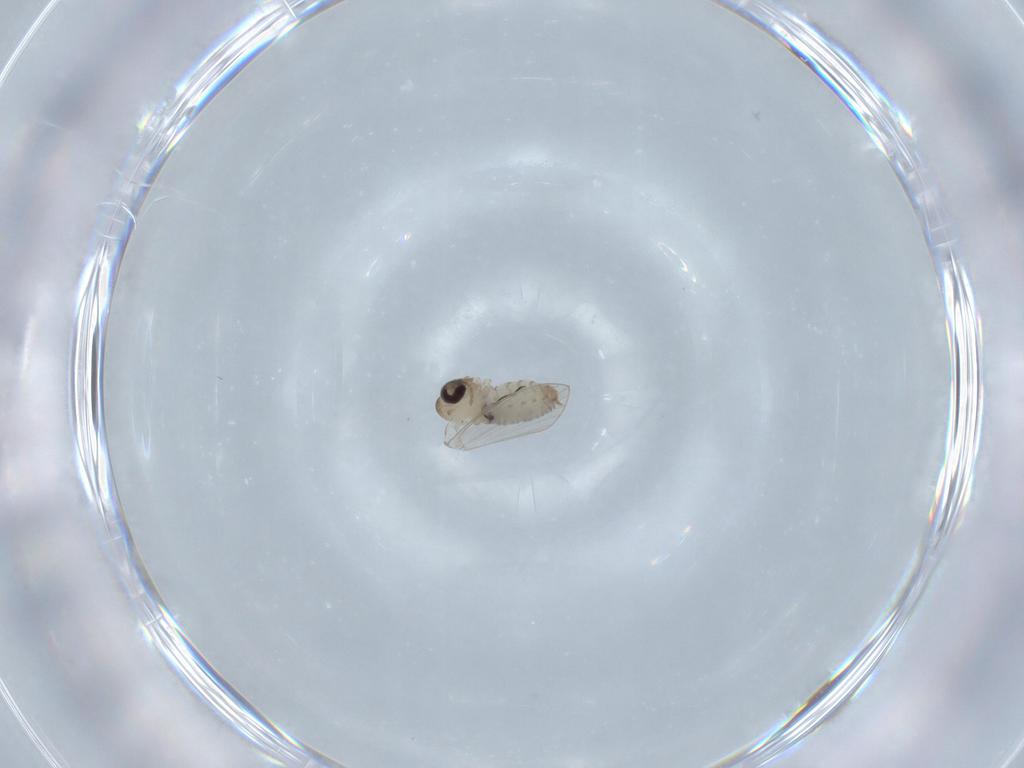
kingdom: Animalia
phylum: Arthropoda
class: Insecta
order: Diptera
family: Psychodidae
